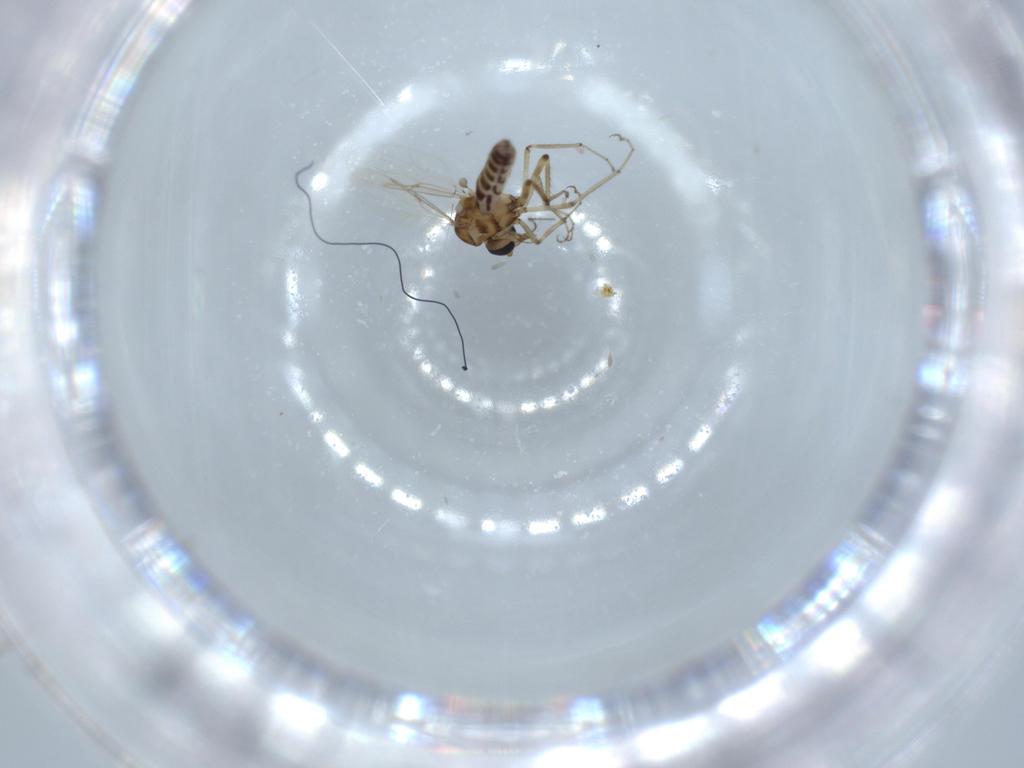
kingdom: Animalia
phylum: Arthropoda
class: Insecta
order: Diptera
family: Ceratopogonidae
